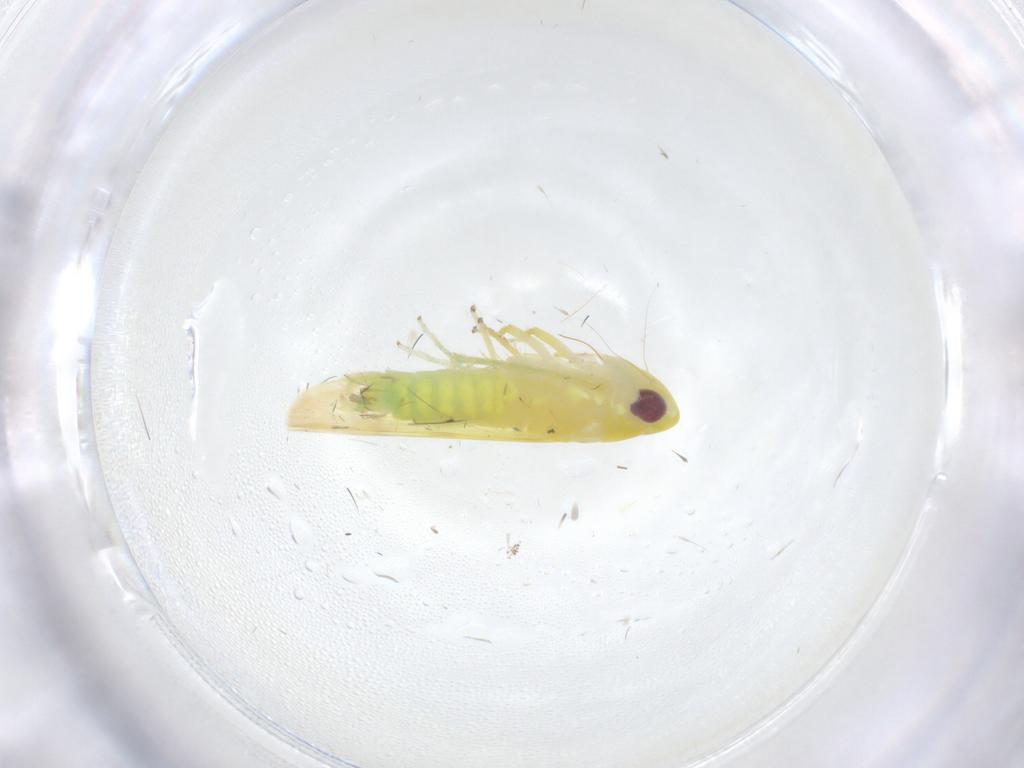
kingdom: Animalia
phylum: Arthropoda
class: Insecta
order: Hemiptera
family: Cicadellidae
